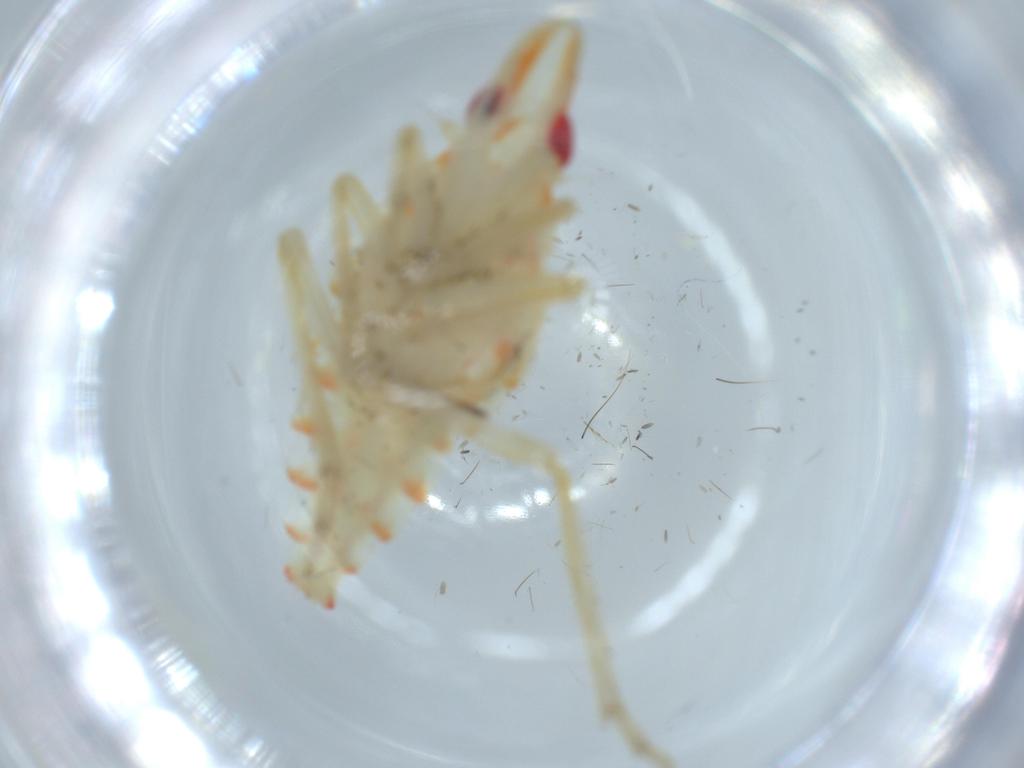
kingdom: Animalia
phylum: Arthropoda
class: Insecta
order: Hemiptera
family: Tropiduchidae
